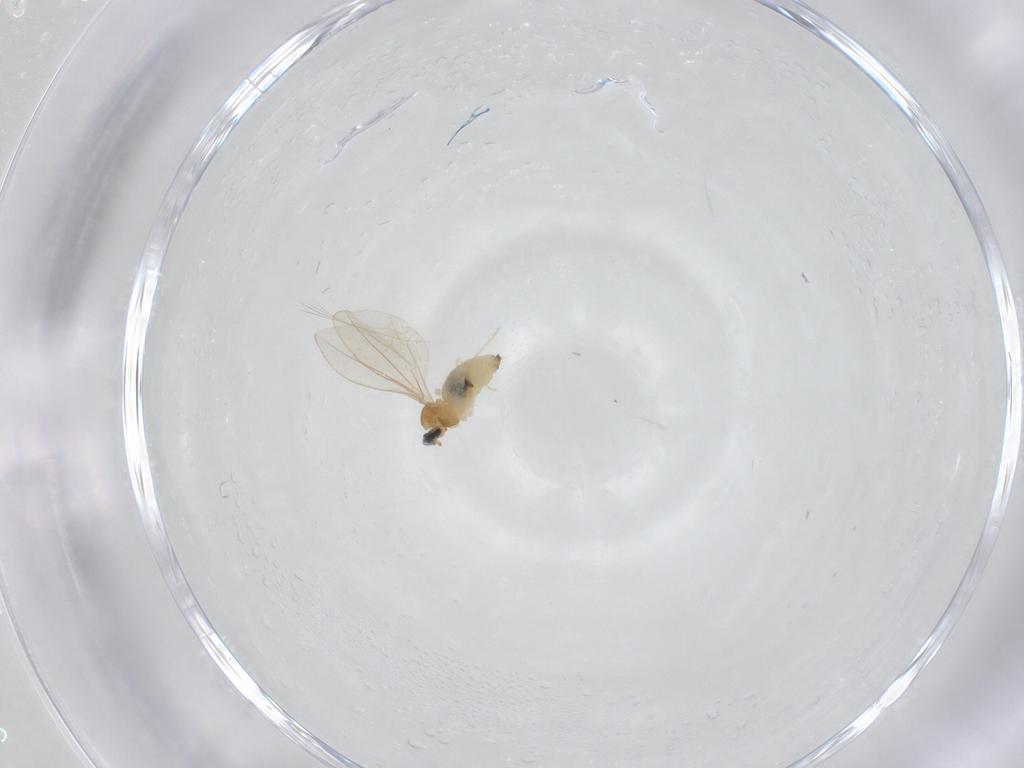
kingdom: Animalia
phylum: Arthropoda
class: Insecta
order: Diptera
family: Cecidomyiidae
